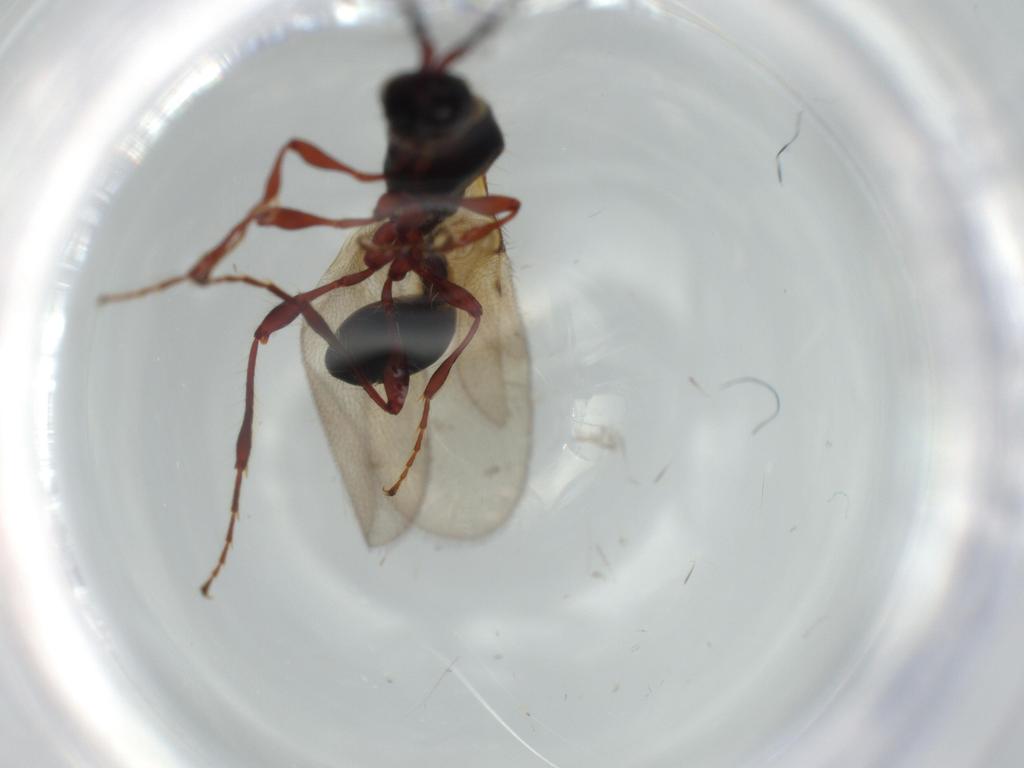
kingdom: Animalia
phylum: Arthropoda
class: Insecta
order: Hymenoptera
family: Diapriidae
